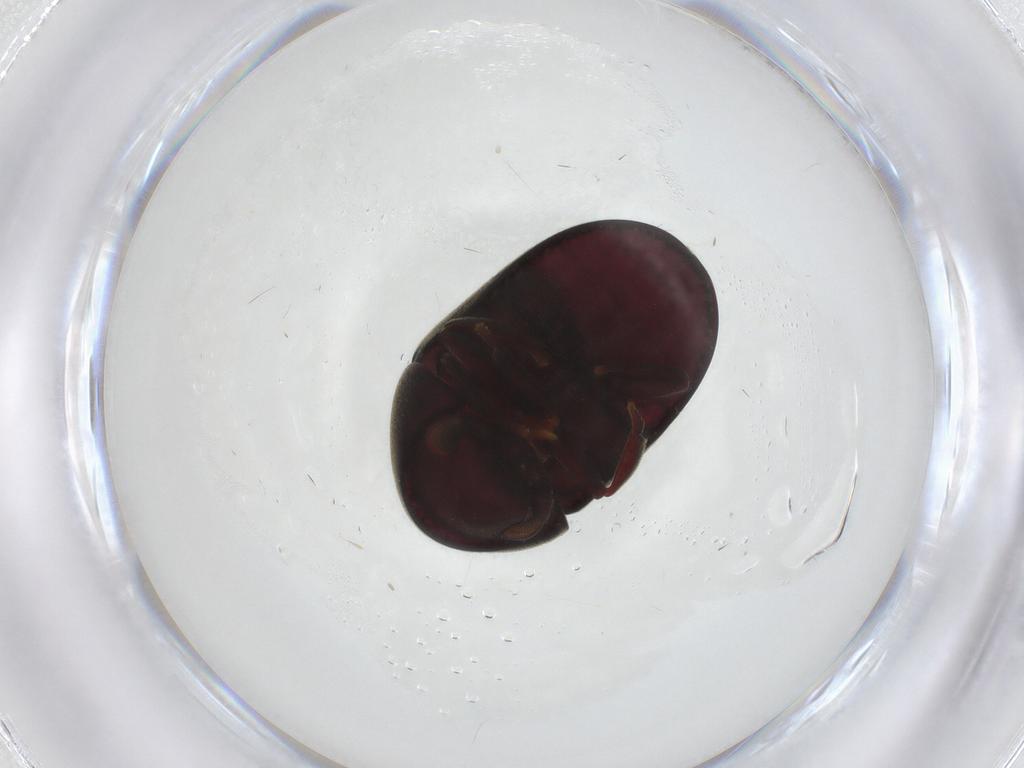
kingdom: Animalia
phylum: Arthropoda
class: Insecta
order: Coleoptera
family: Ptinidae
